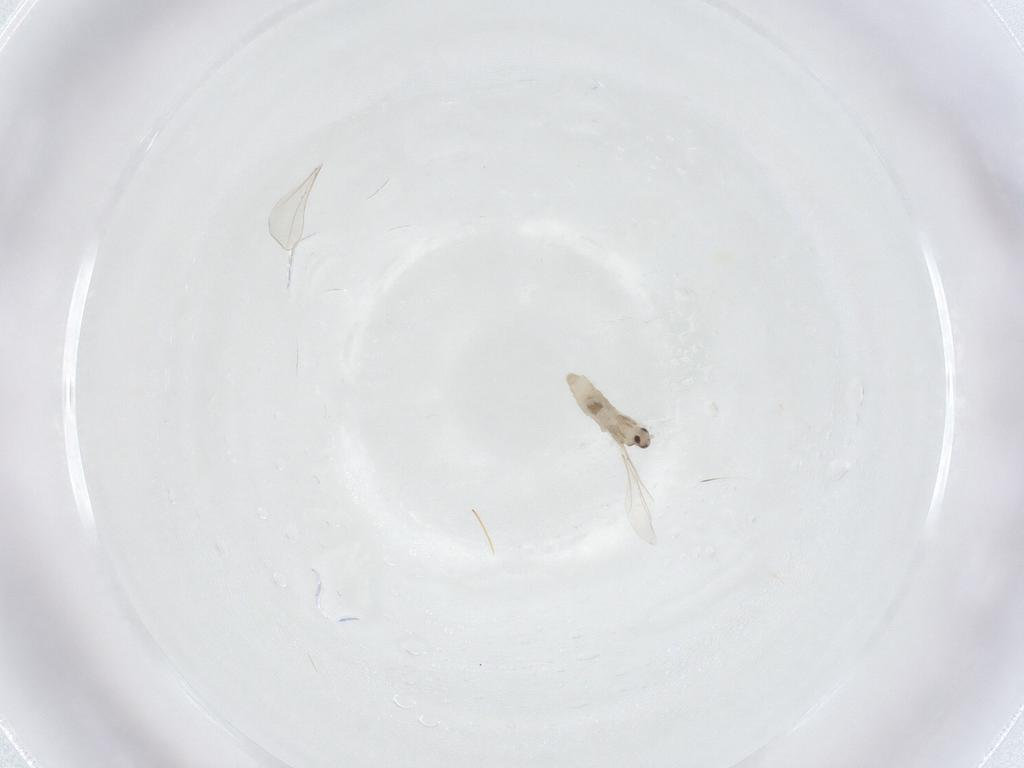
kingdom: Animalia
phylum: Arthropoda
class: Insecta
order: Diptera
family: Cecidomyiidae
